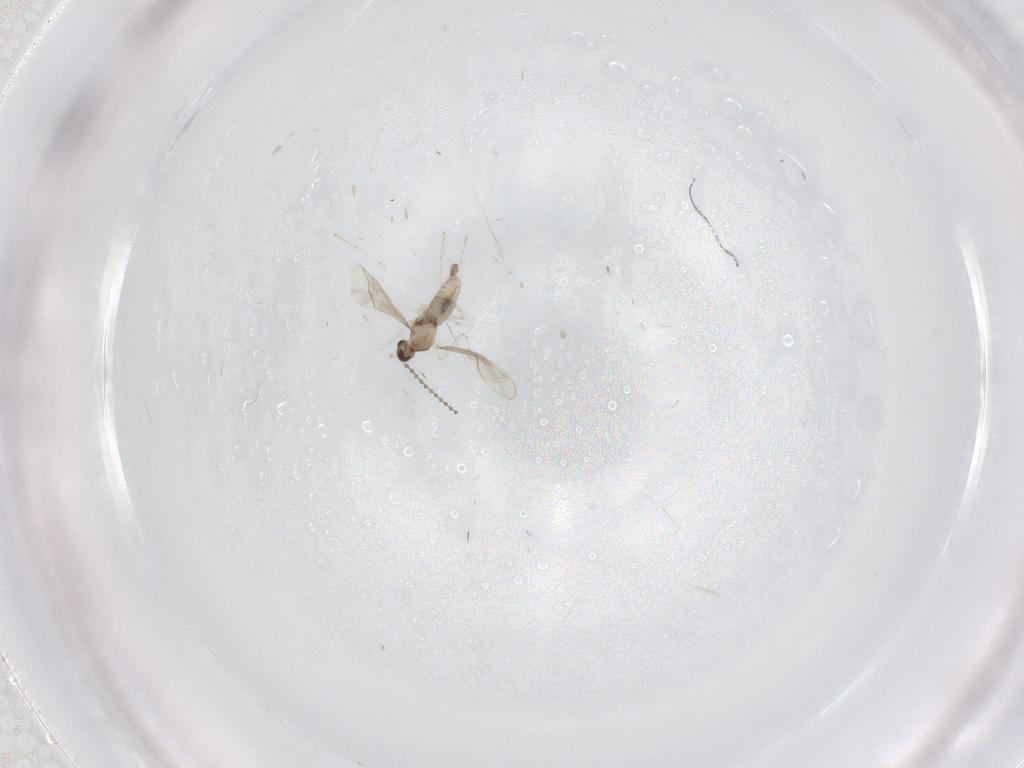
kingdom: Animalia
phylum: Arthropoda
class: Insecta
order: Diptera
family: Cecidomyiidae
